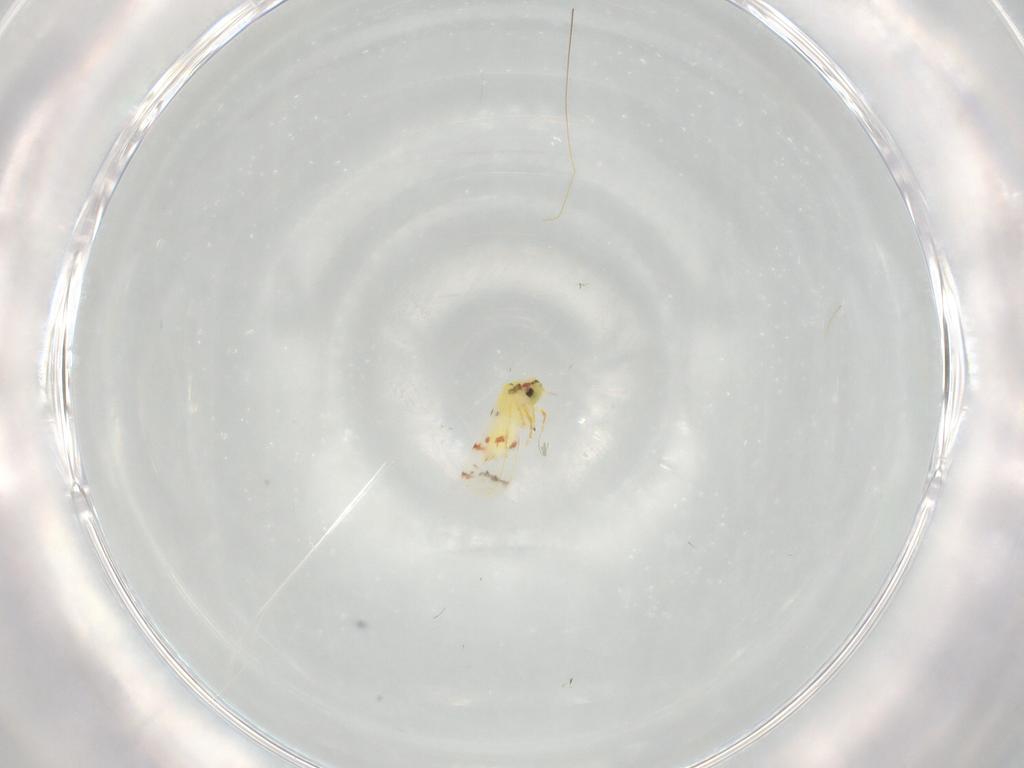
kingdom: Animalia
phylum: Arthropoda
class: Insecta
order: Hemiptera
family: Aleyrodidae
